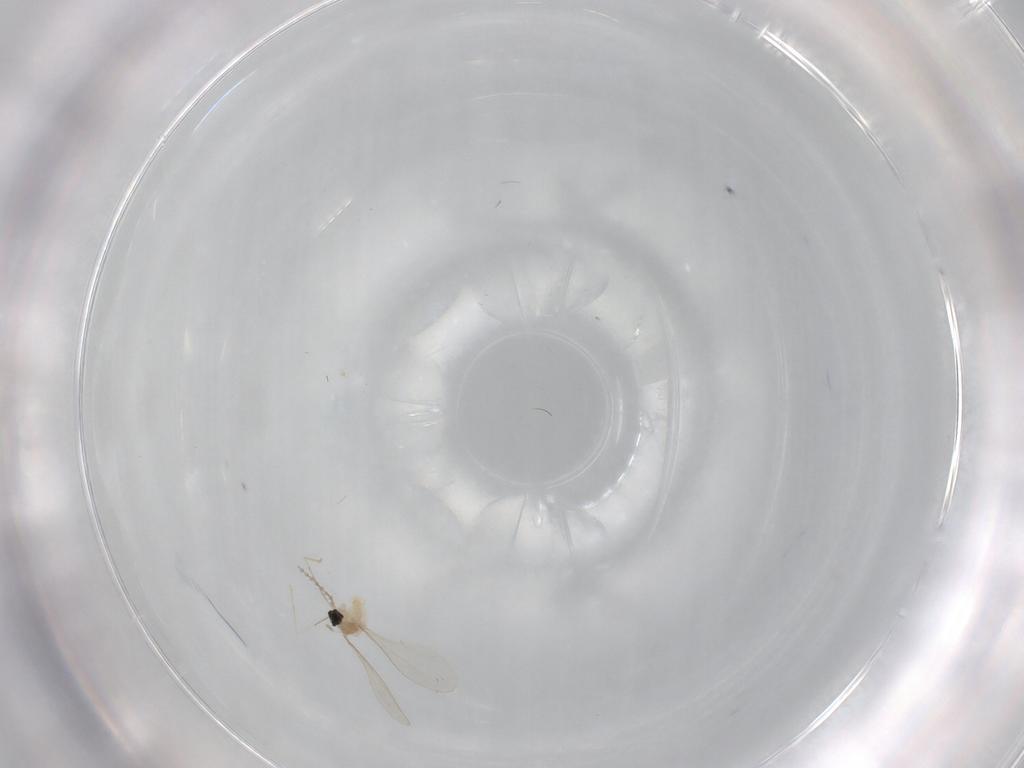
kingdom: Animalia
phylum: Arthropoda
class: Insecta
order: Diptera
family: Cecidomyiidae
